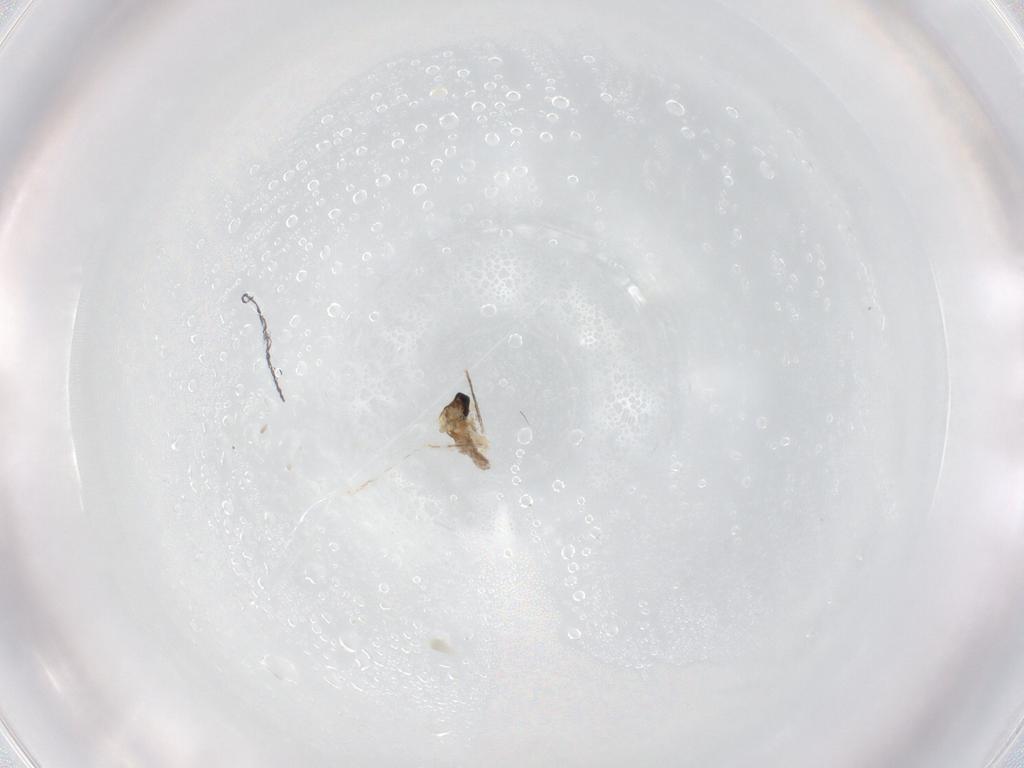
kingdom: Animalia
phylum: Arthropoda
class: Insecta
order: Diptera
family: Cecidomyiidae
